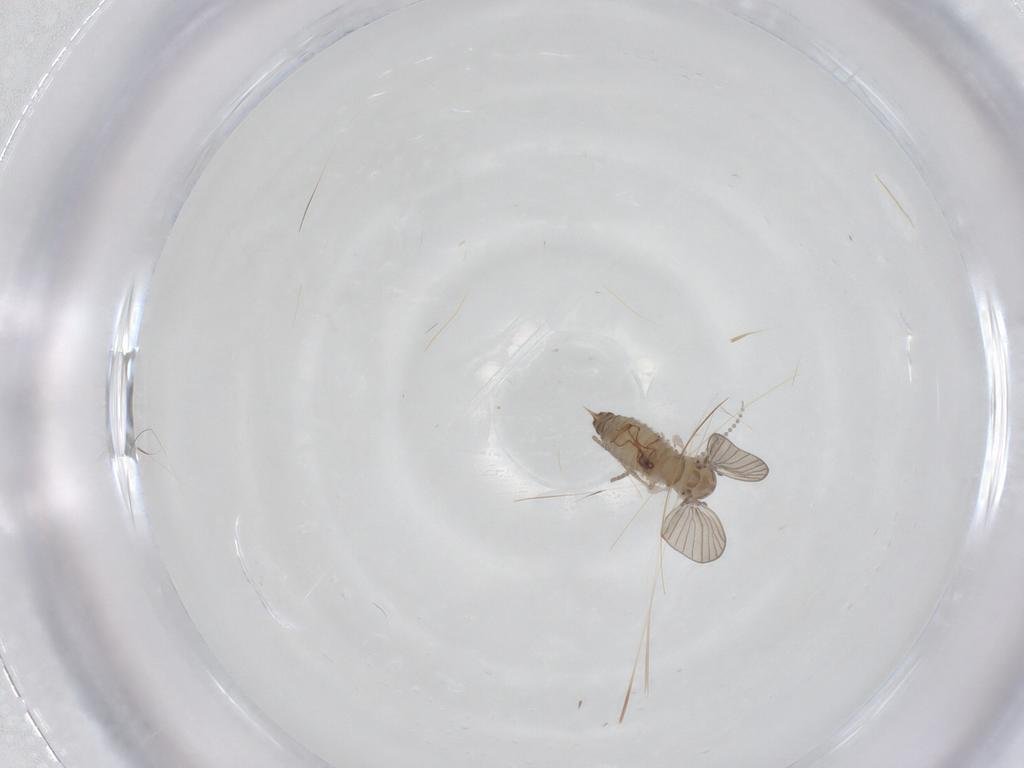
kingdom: Animalia
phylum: Arthropoda
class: Insecta
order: Diptera
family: Psychodidae
